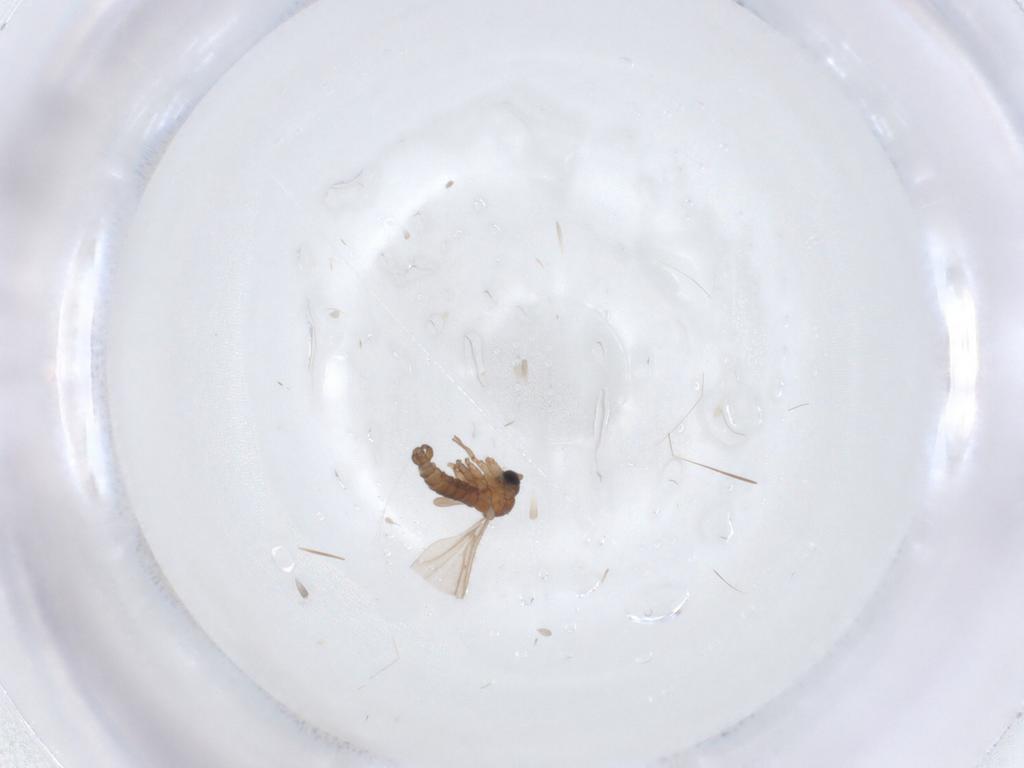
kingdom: Animalia
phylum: Arthropoda
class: Insecta
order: Diptera
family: Sciaridae
